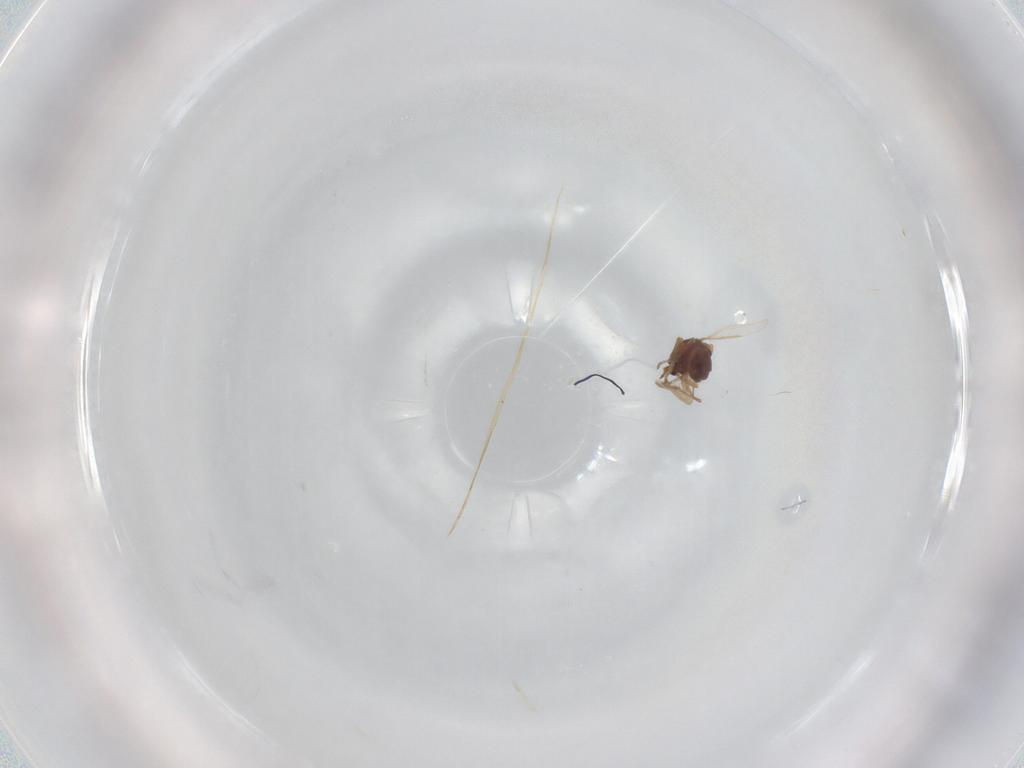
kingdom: Animalia
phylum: Arthropoda
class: Insecta
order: Diptera
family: Ceratopogonidae
